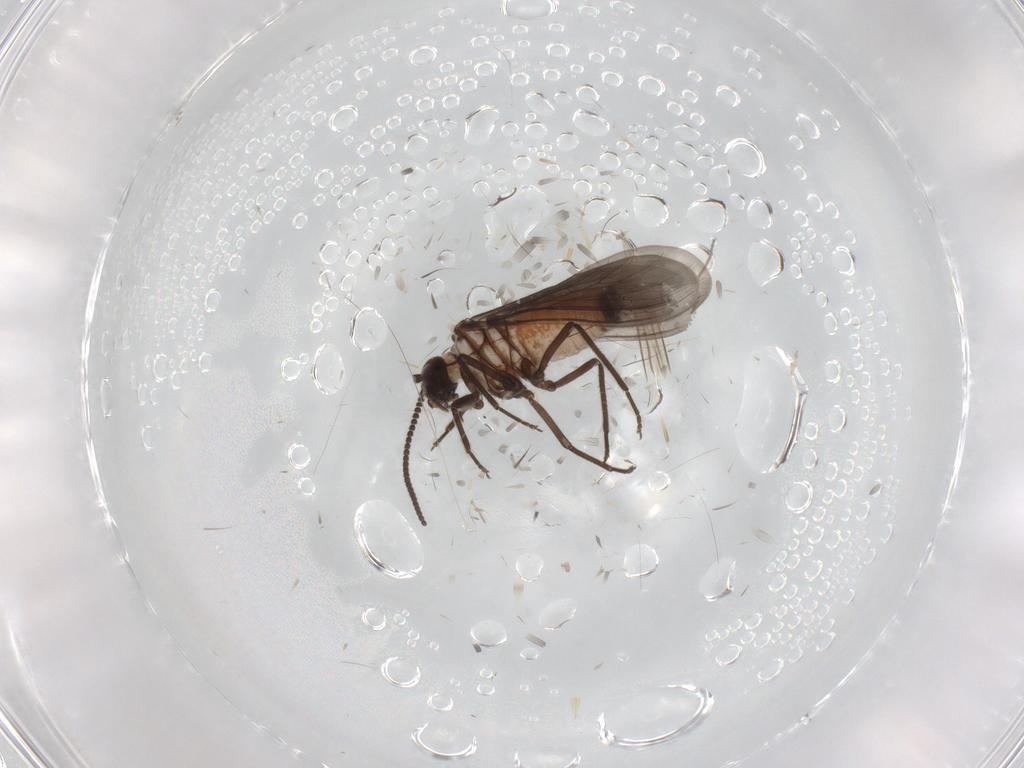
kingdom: Animalia
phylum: Arthropoda
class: Insecta
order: Neuroptera
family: Coniopterygidae
